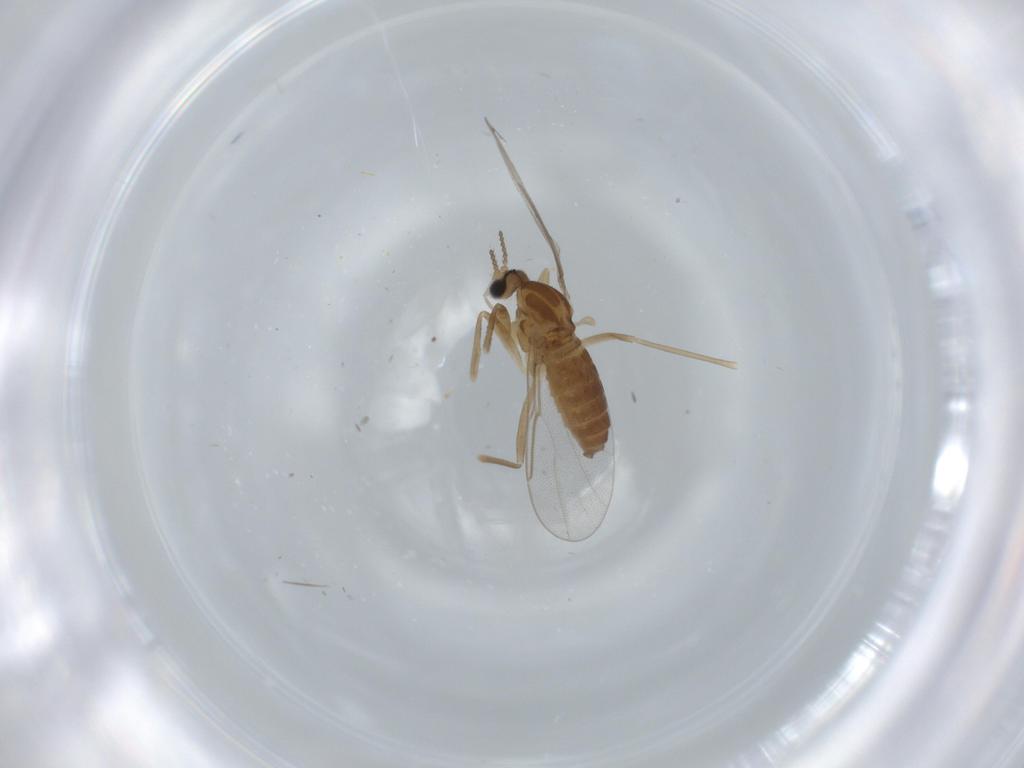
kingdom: Animalia
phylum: Arthropoda
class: Insecta
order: Diptera
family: Cecidomyiidae
